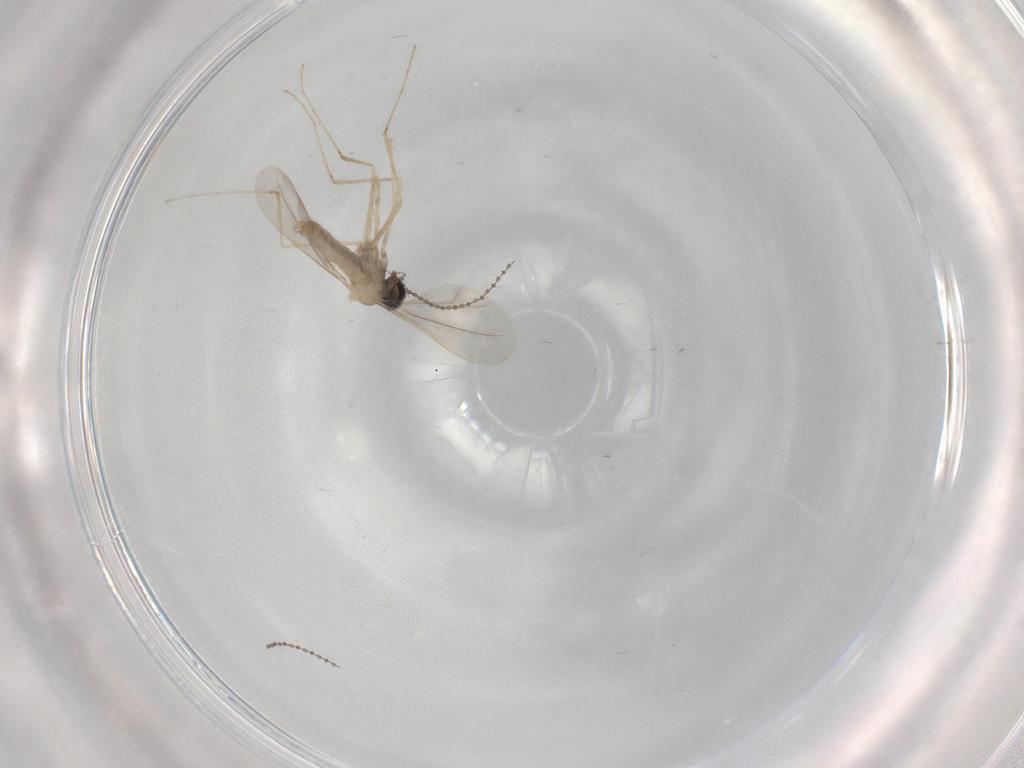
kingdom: Animalia
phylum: Arthropoda
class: Insecta
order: Diptera
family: Cecidomyiidae
